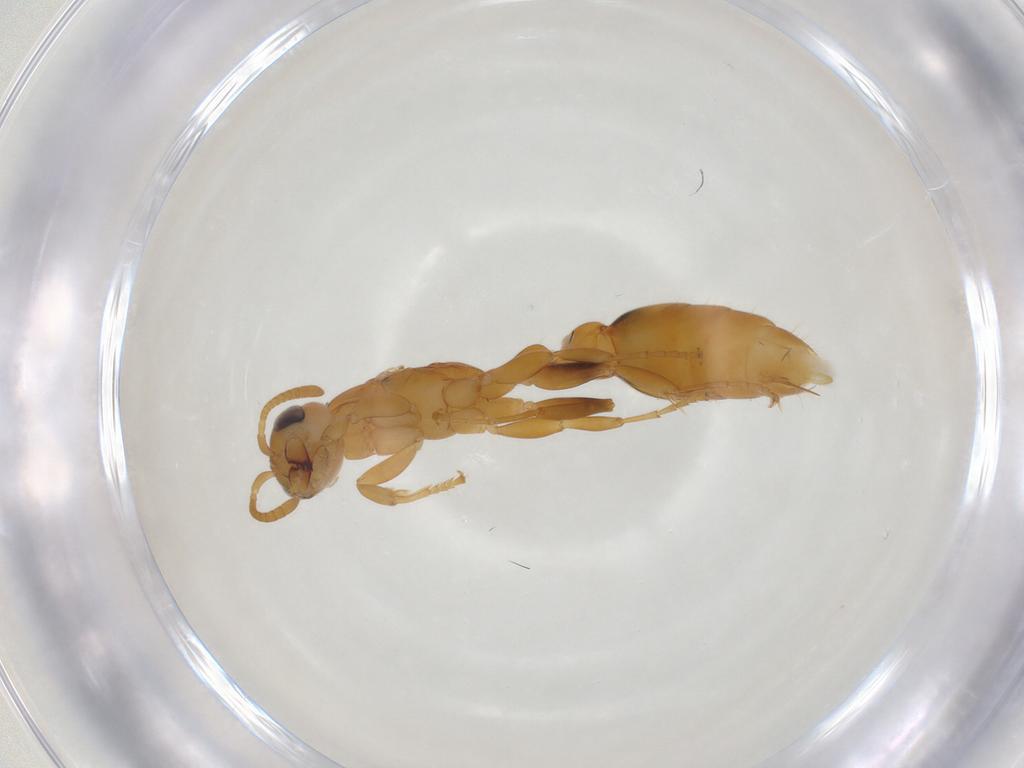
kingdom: Animalia
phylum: Arthropoda
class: Insecta
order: Hymenoptera
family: Formicidae
